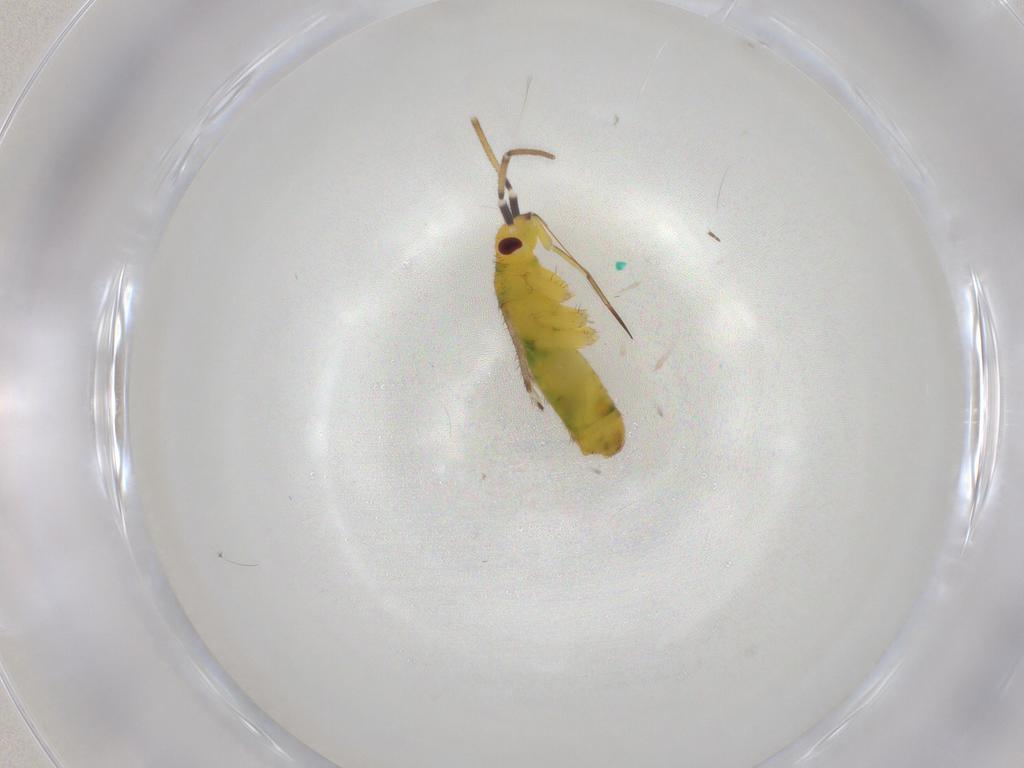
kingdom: Animalia
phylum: Arthropoda
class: Insecta
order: Hemiptera
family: Miridae
